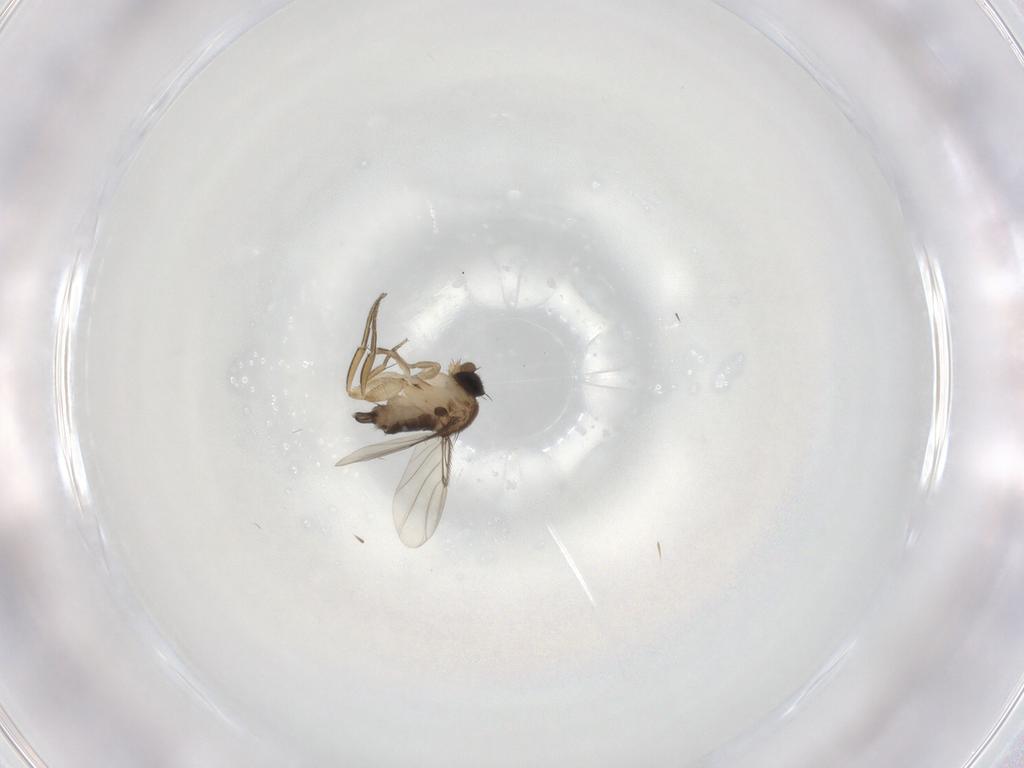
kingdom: Animalia
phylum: Arthropoda
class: Insecta
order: Diptera
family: Phoridae
